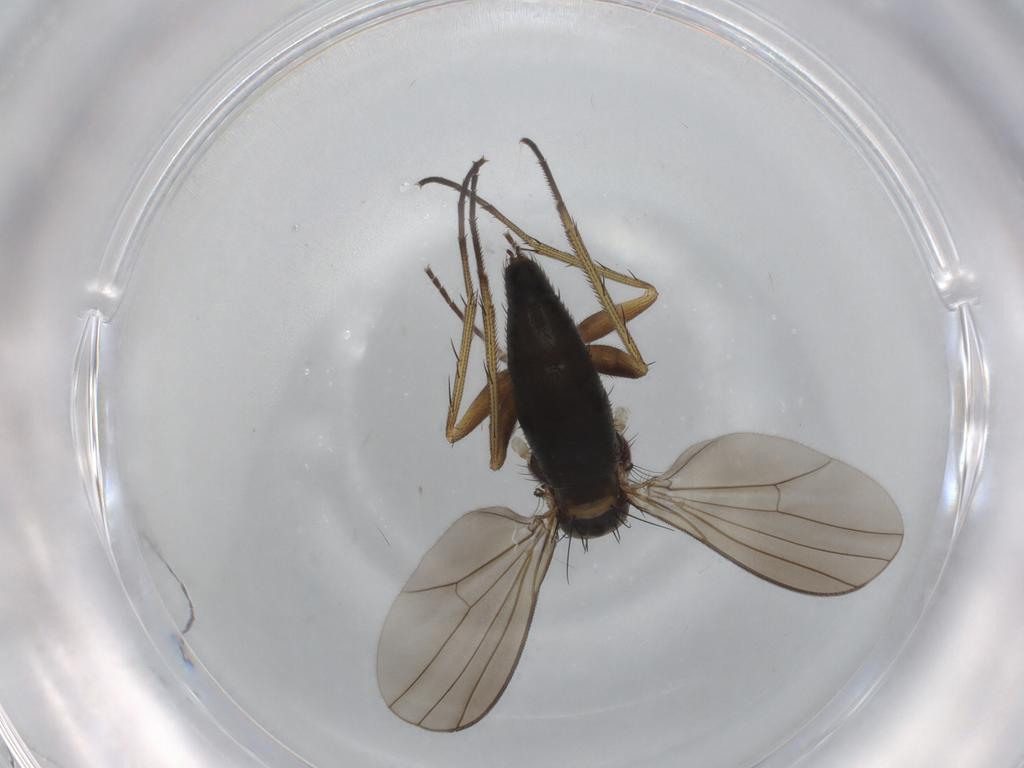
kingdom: Animalia
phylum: Arthropoda
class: Insecta
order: Diptera
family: Dolichopodidae
